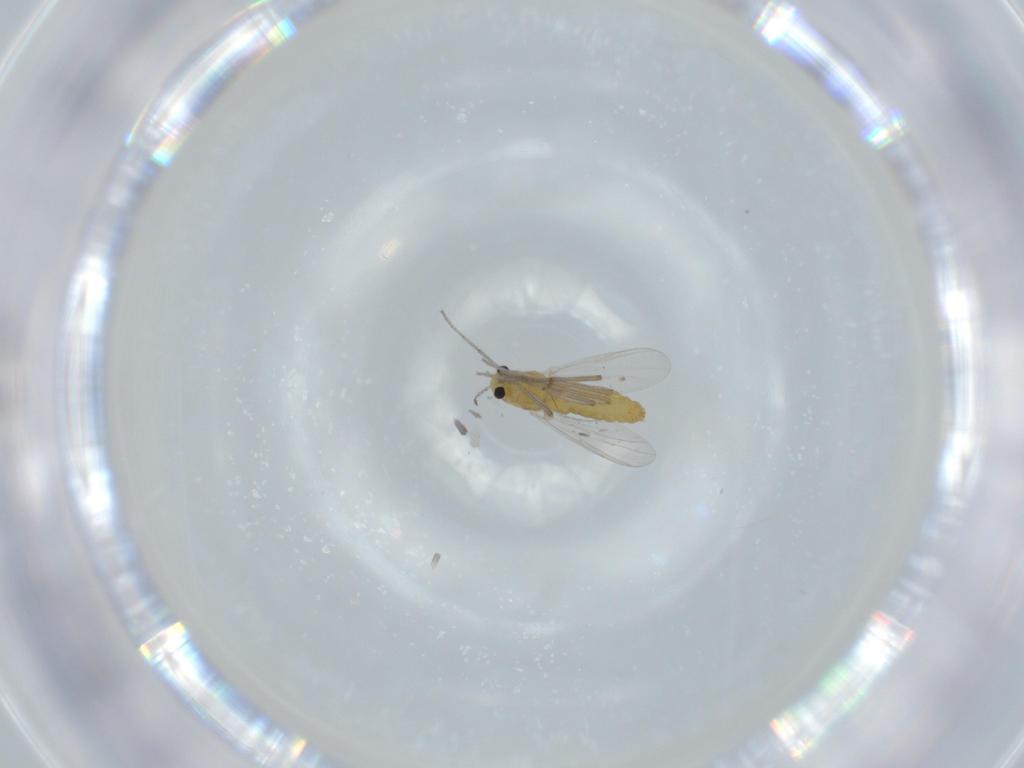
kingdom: Animalia
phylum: Arthropoda
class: Insecta
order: Diptera
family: Chironomidae
